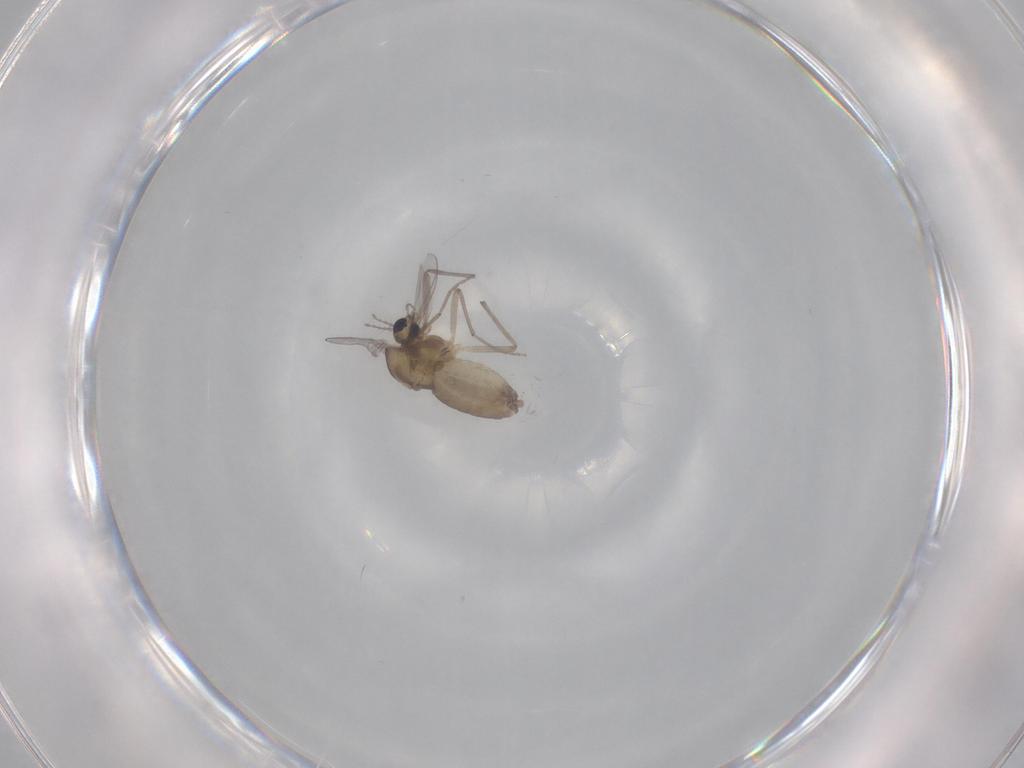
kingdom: Animalia
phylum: Arthropoda
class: Insecta
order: Diptera
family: Chironomidae
